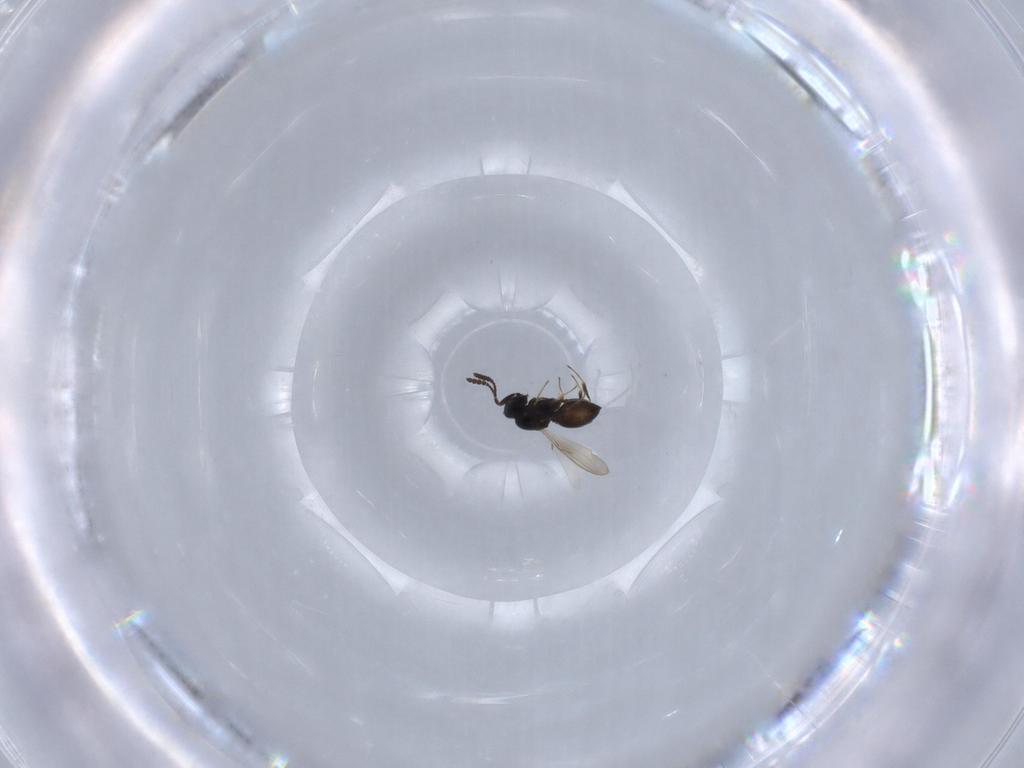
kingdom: Animalia
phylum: Arthropoda
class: Insecta
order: Hymenoptera
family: Scelionidae
